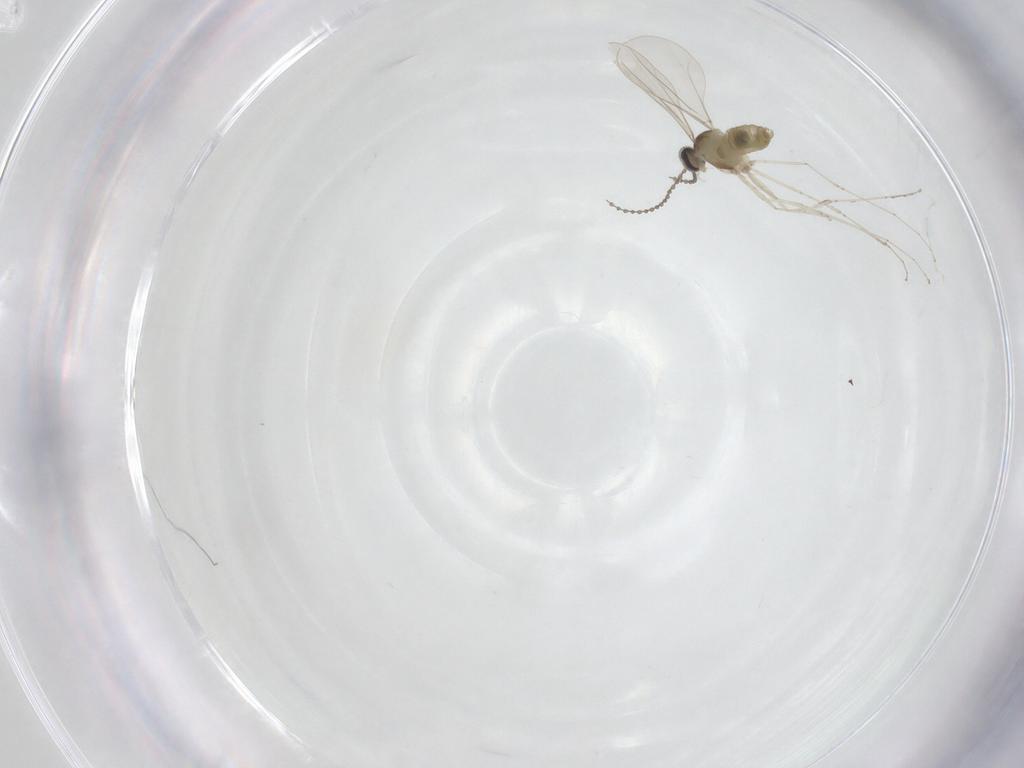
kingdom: Animalia
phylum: Arthropoda
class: Insecta
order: Diptera
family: Cecidomyiidae
